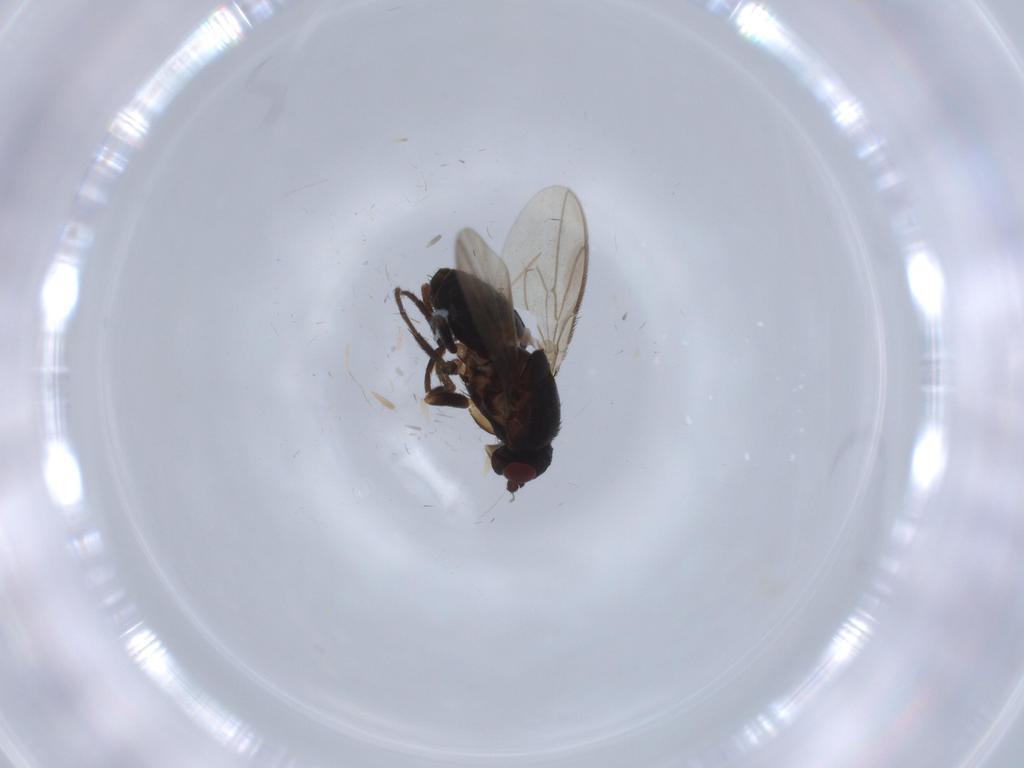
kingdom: Animalia
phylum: Arthropoda
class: Insecta
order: Diptera
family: Sphaeroceridae
